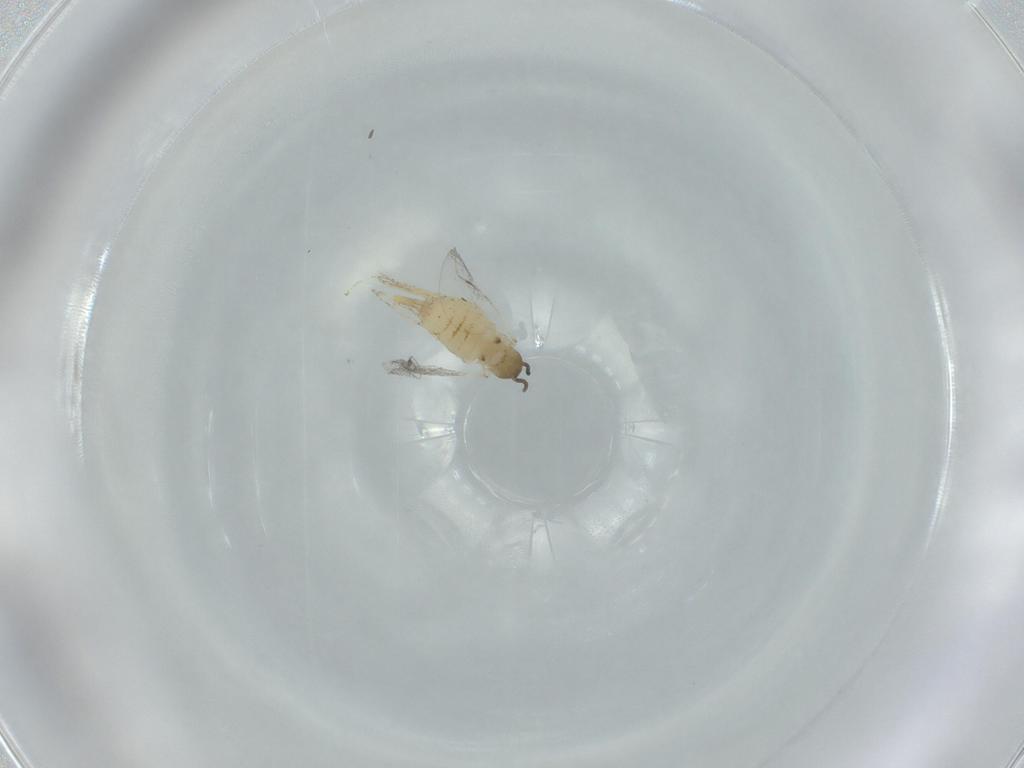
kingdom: Animalia
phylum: Arthropoda
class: Insecta
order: Diptera
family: Cecidomyiidae
